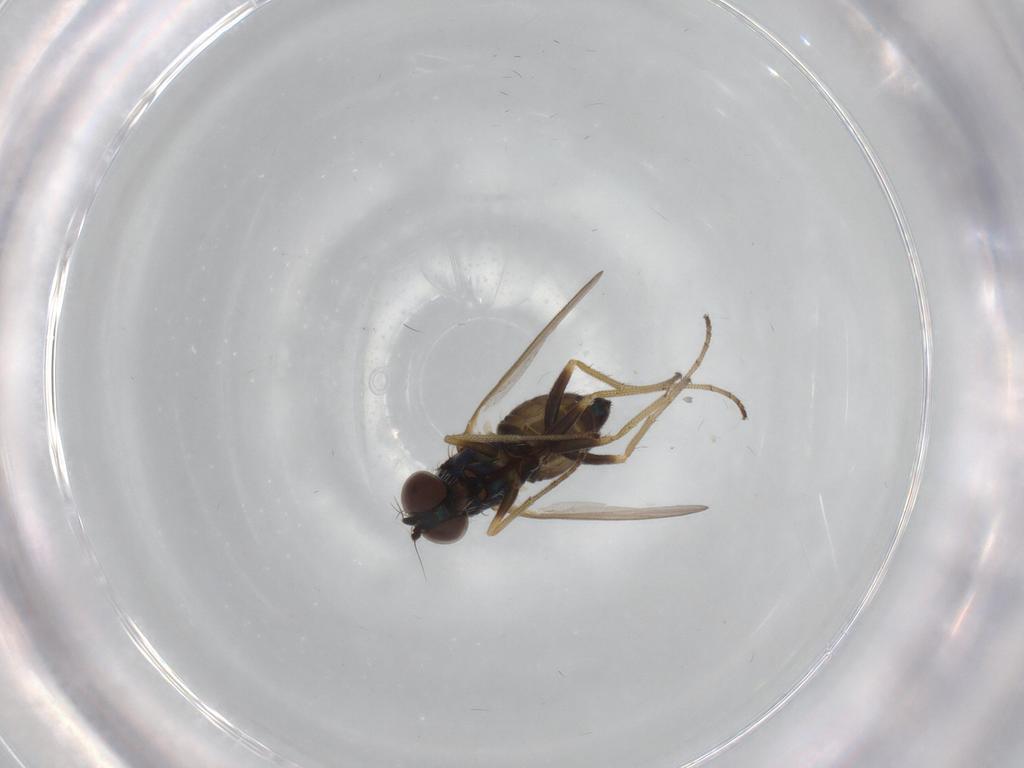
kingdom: Animalia
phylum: Arthropoda
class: Insecta
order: Diptera
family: Dolichopodidae
